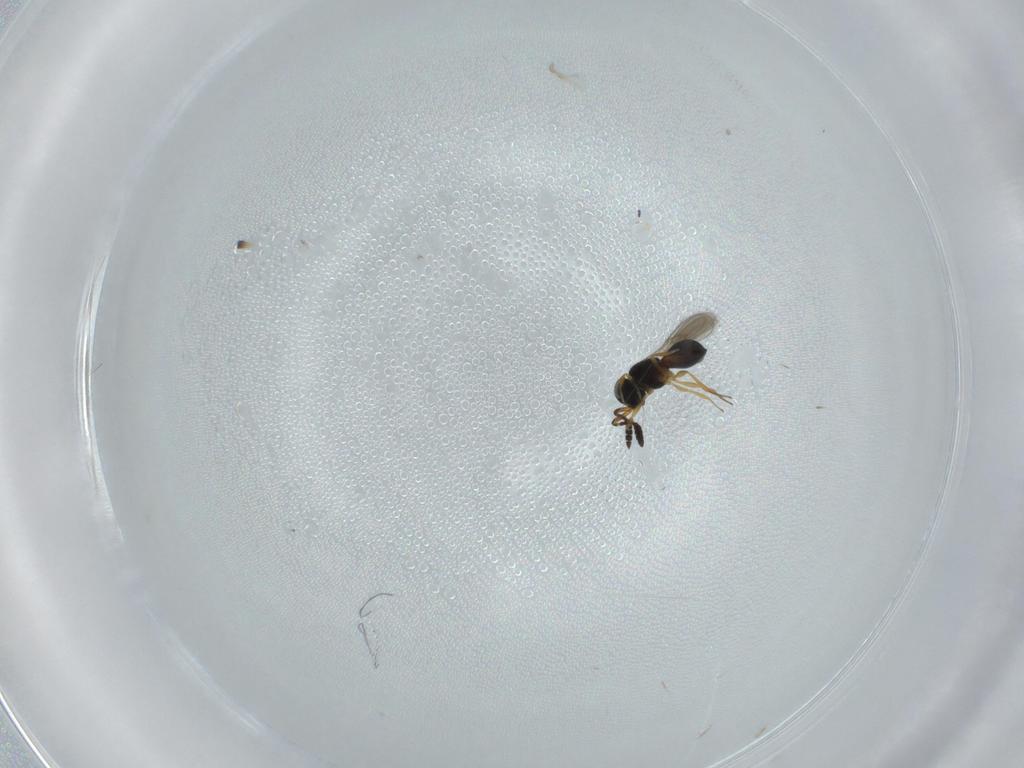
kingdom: Animalia
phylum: Arthropoda
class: Insecta
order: Hymenoptera
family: Scelionidae
